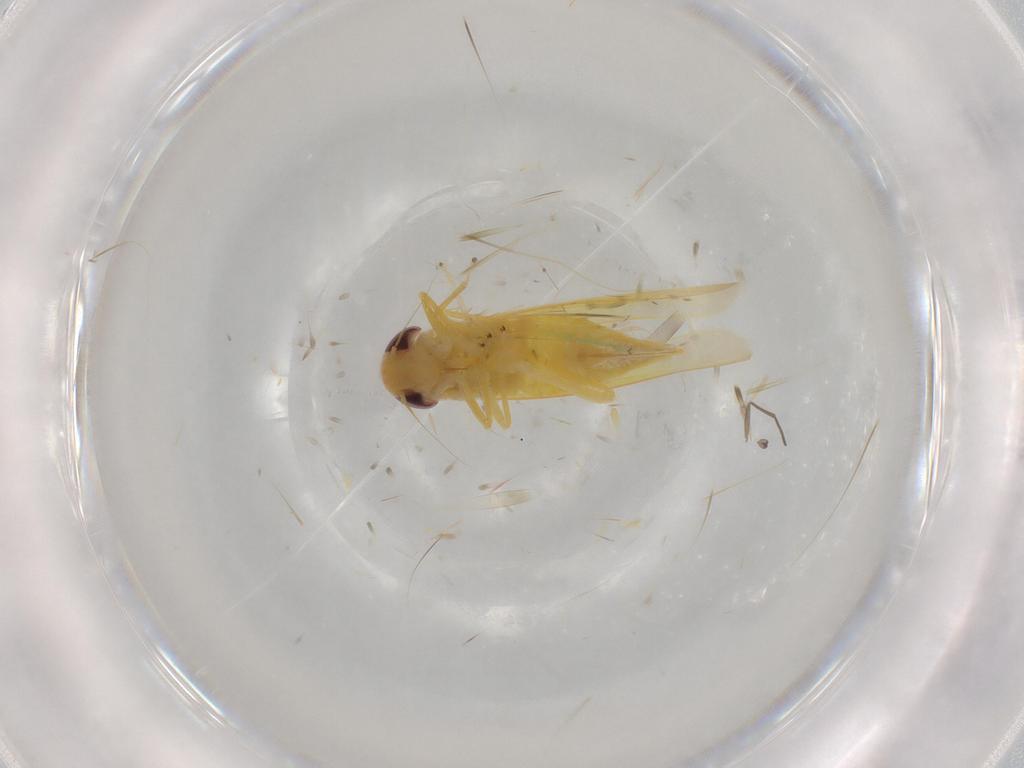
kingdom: Animalia
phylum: Arthropoda
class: Insecta
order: Hemiptera
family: Cicadellidae
